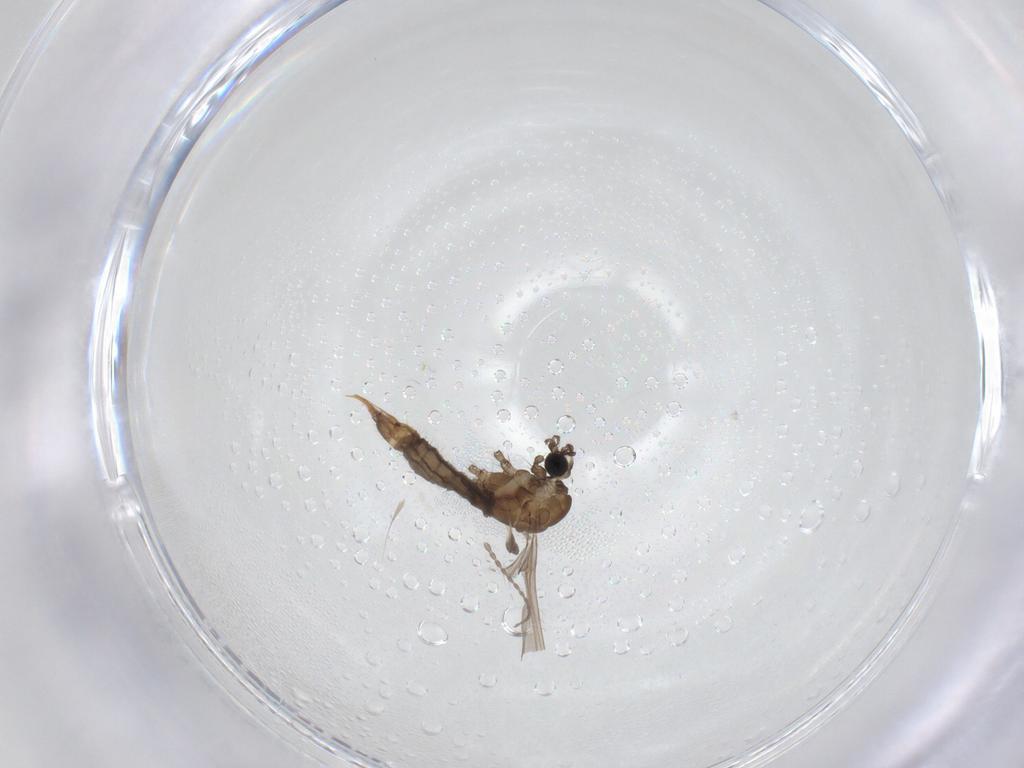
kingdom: Animalia
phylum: Arthropoda
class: Insecta
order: Diptera
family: Limoniidae
